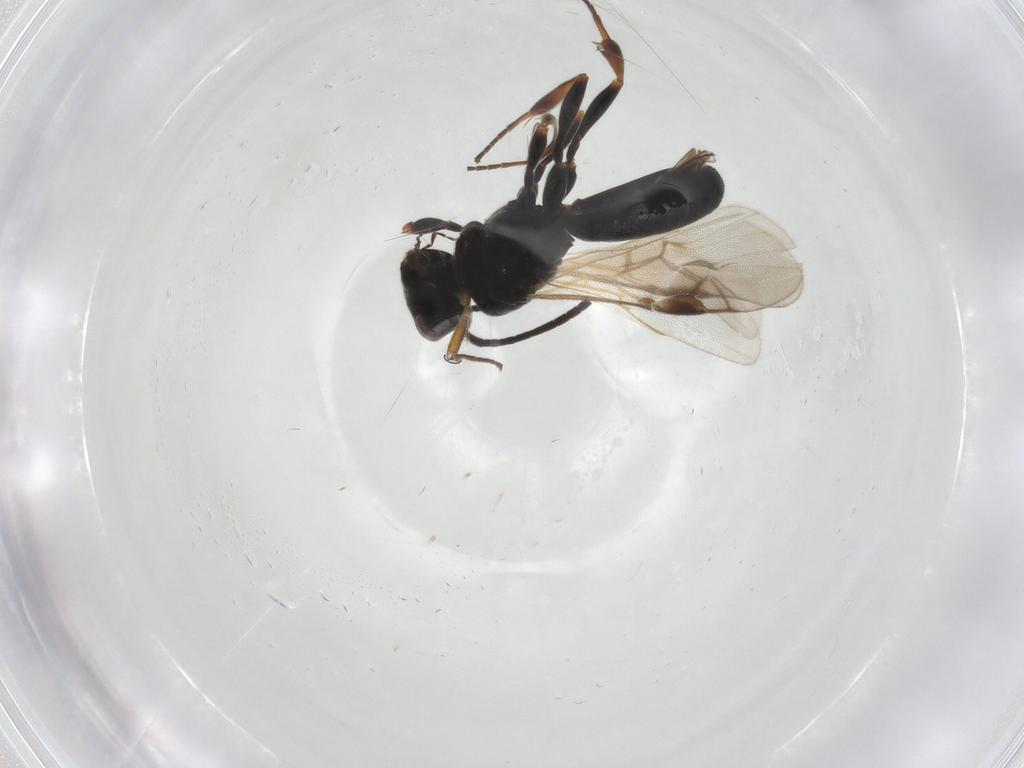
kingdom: Animalia
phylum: Arthropoda
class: Insecta
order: Hymenoptera
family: Braconidae
